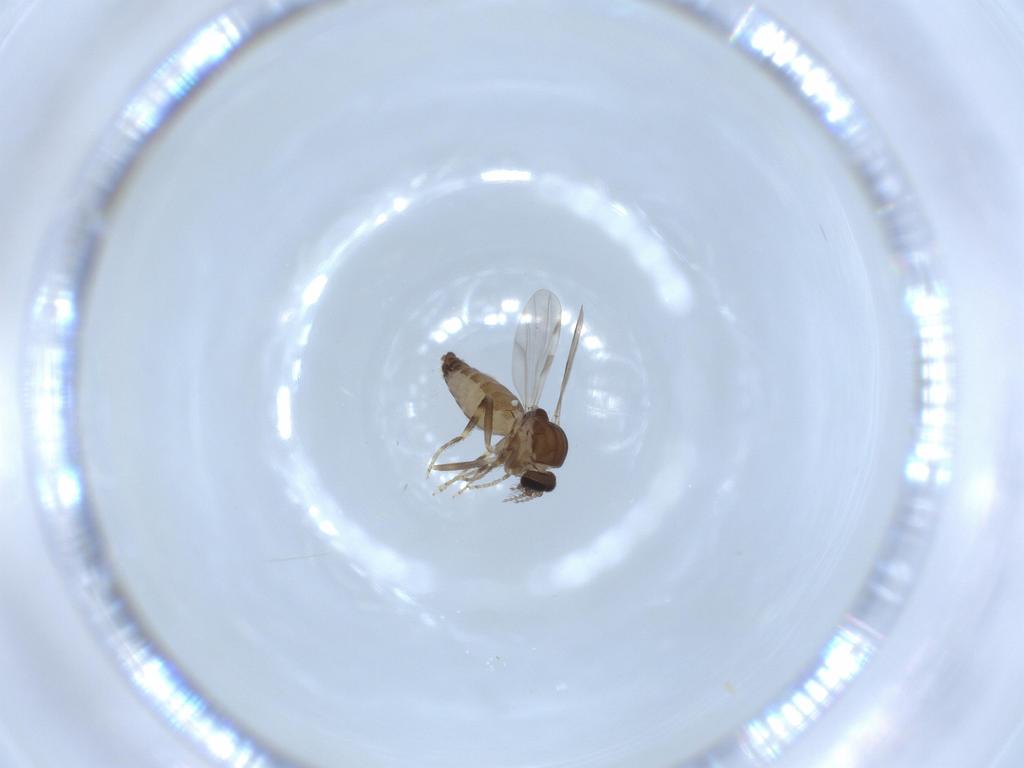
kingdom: Animalia
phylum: Arthropoda
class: Insecta
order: Diptera
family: Ceratopogonidae
